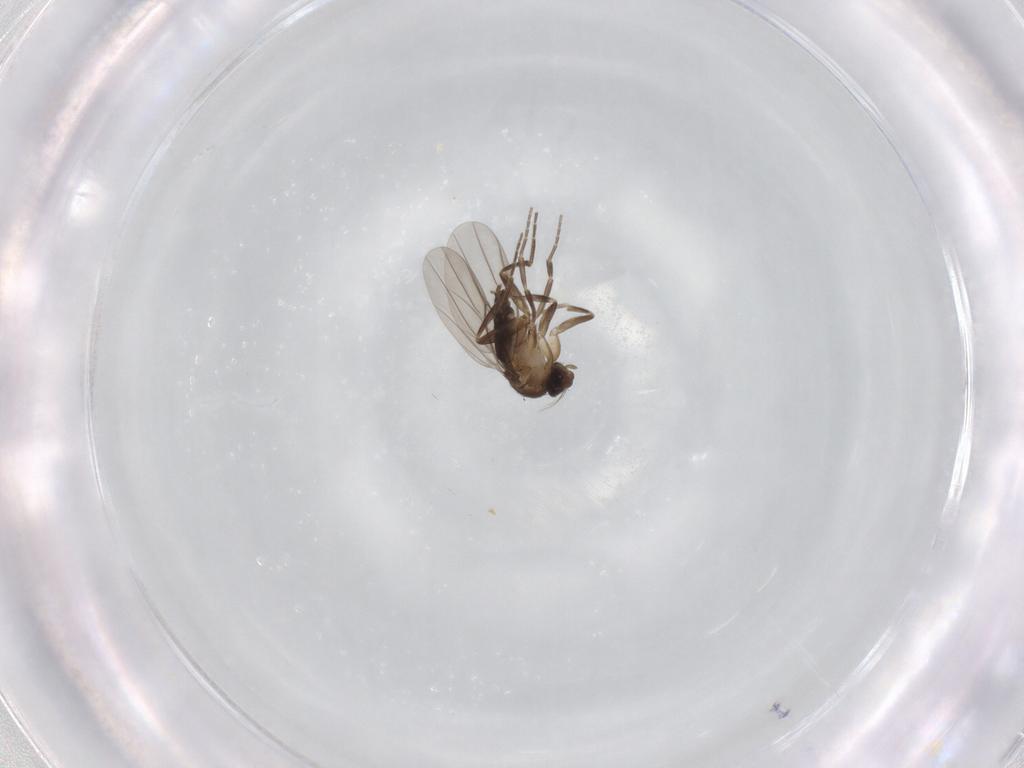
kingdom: Animalia
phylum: Arthropoda
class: Insecta
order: Diptera
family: Phoridae
